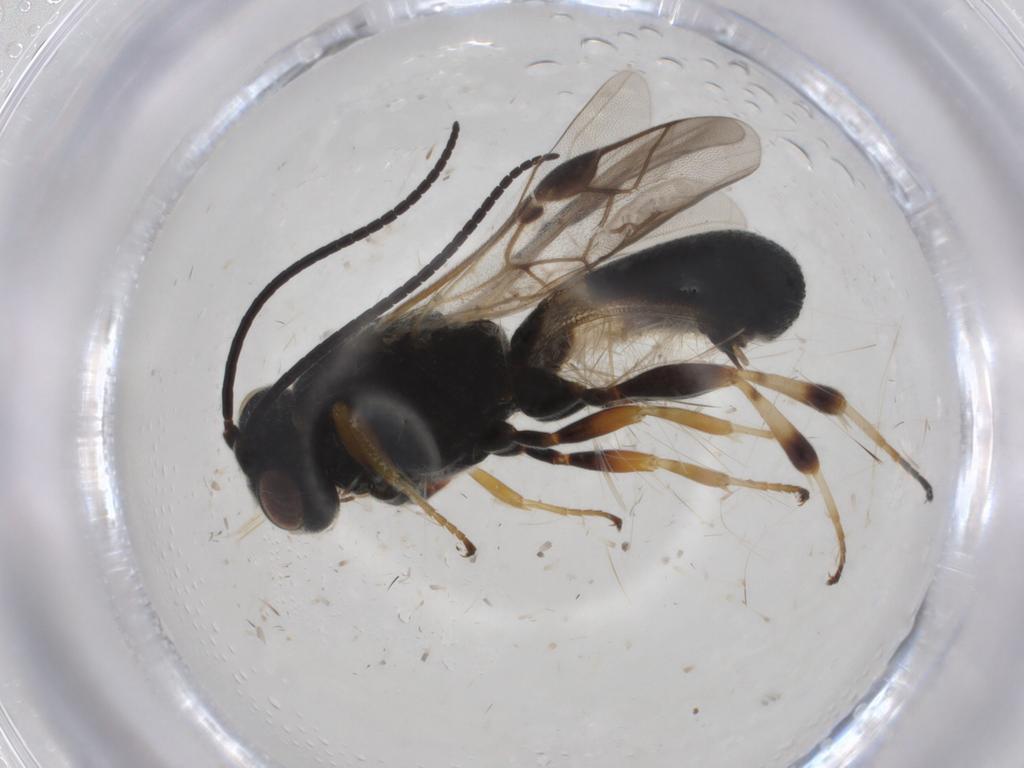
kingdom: Animalia
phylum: Arthropoda
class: Insecta
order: Hymenoptera
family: Braconidae
